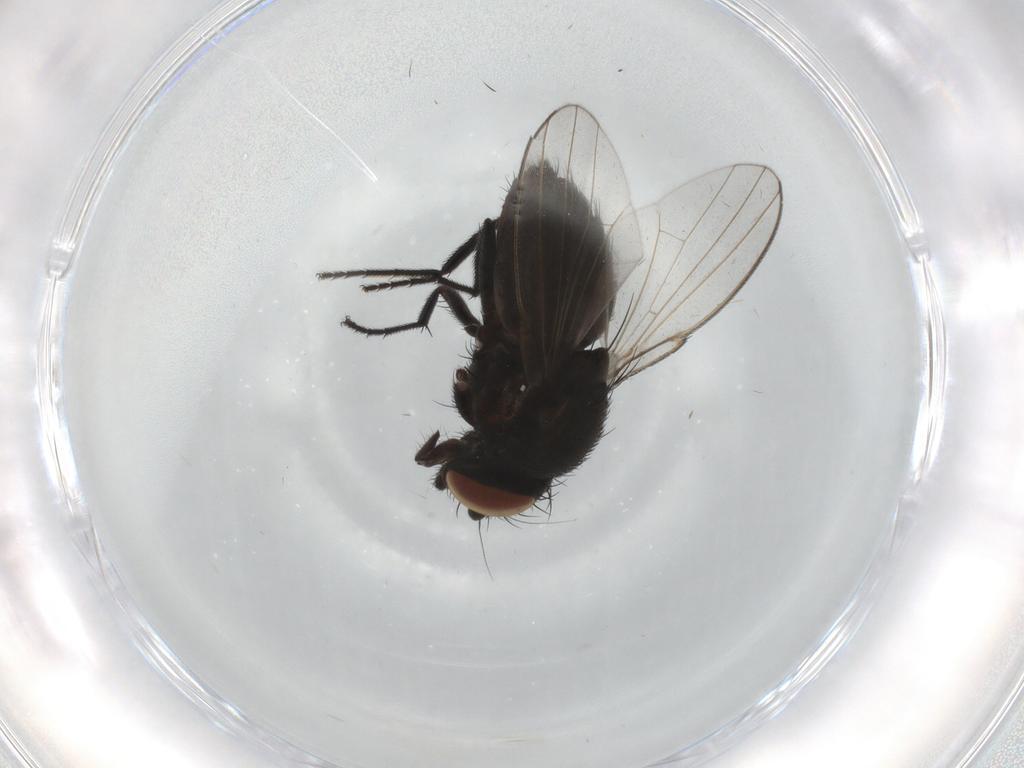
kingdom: Animalia
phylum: Arthropoda
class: Insecta
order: Diptera
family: Milichiidae
